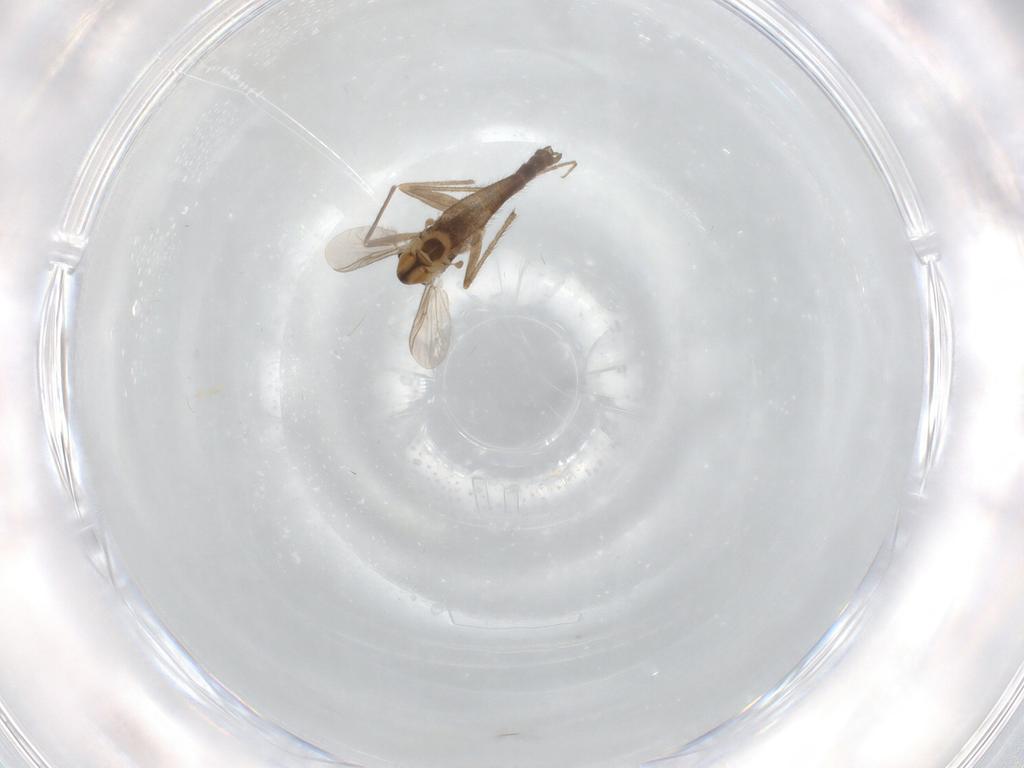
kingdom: Animalia
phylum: Arthropoda
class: Insecta
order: Diptera
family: Chironomidae
